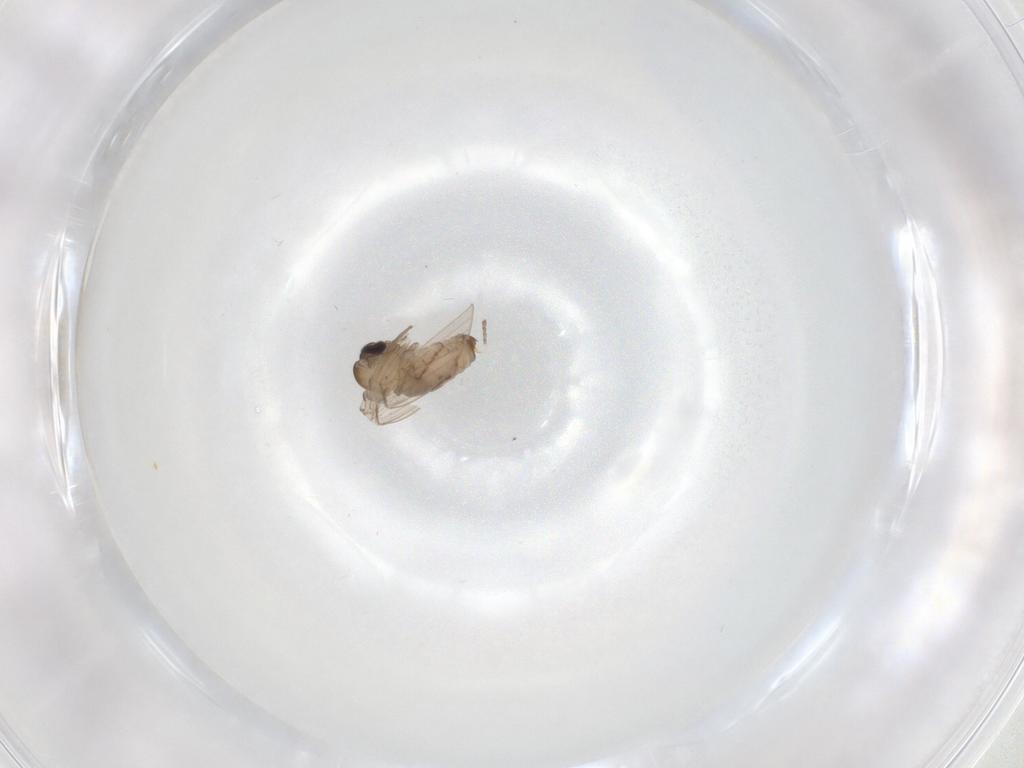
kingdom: Animalia
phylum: Arthropoda
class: Insecta
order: Diptera
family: Psychodidae
